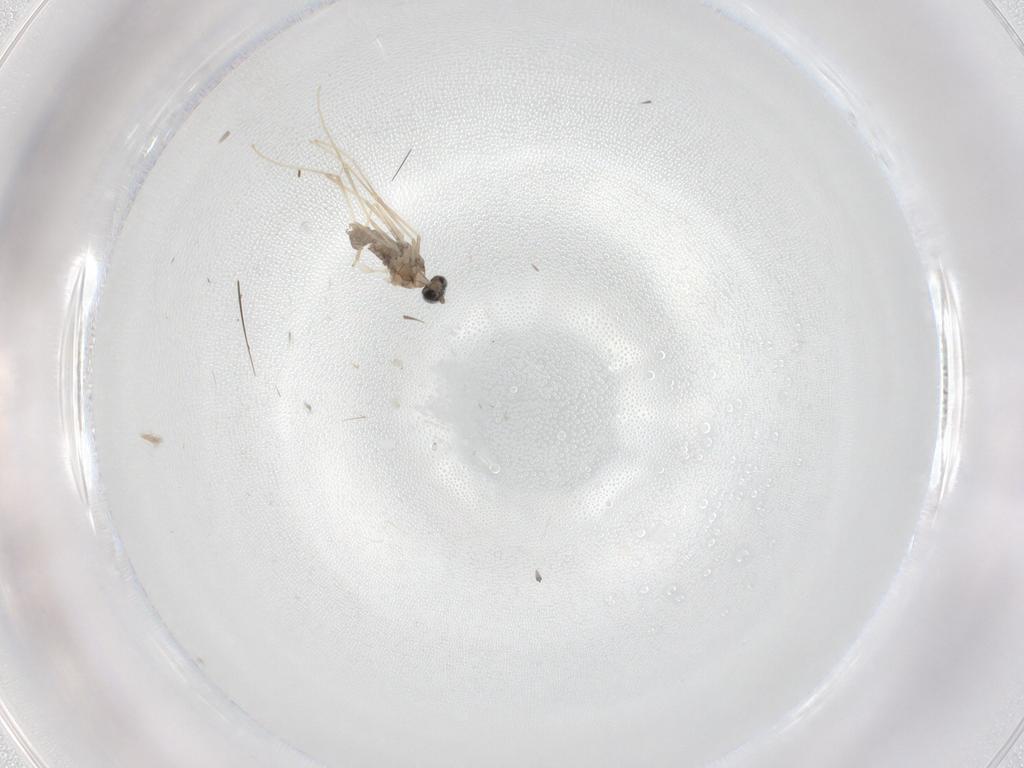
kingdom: Animalia
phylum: Arthropoda
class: Insecta
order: Diptera
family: Cecidomyiidae
